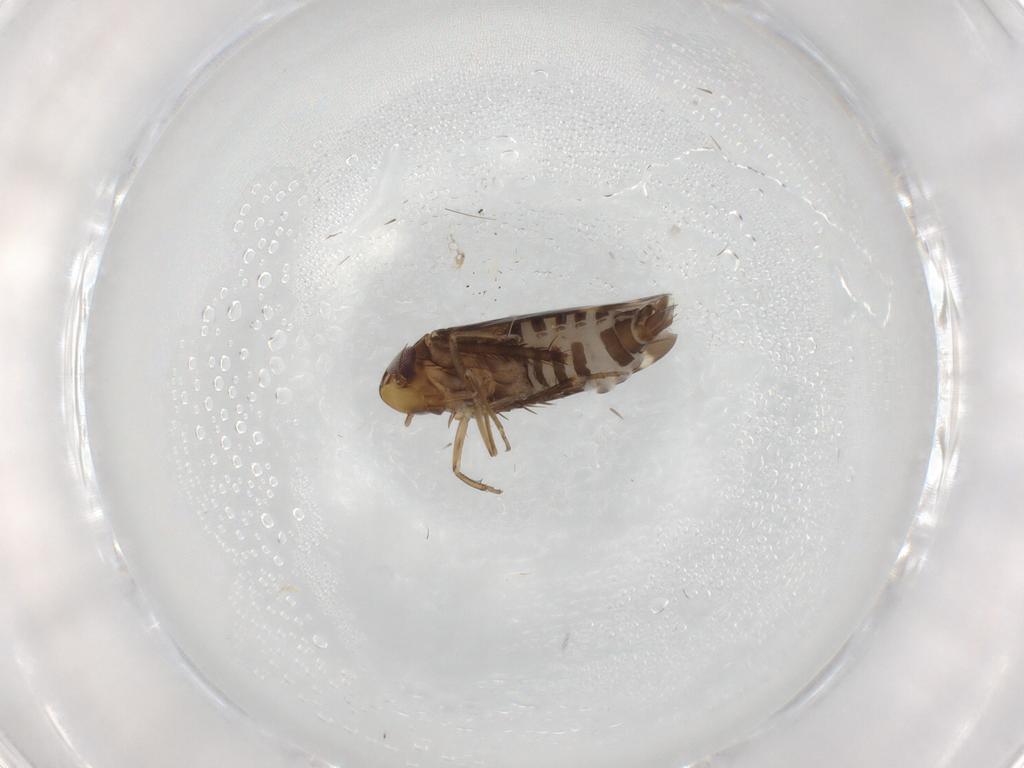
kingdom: Animalia
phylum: Arthropoda
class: Insecta
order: Hemiptera
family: Cicadellidae
